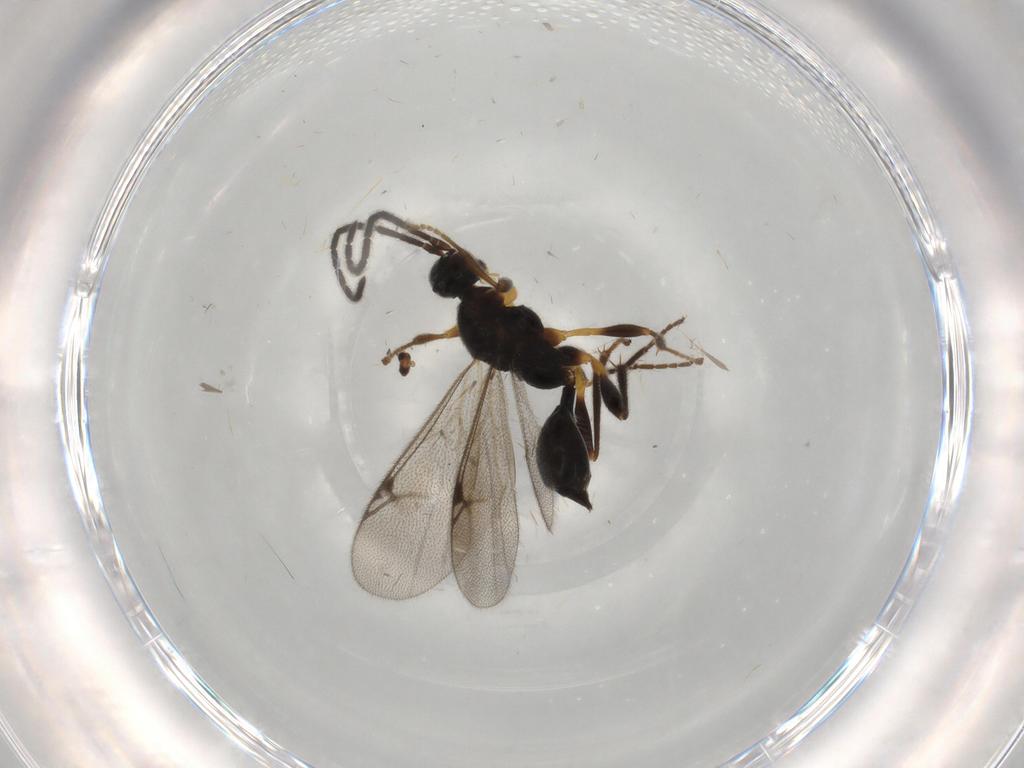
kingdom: Animalia
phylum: Arthropoda
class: Insecta
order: Hymenoptera
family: Proctotrupidae
